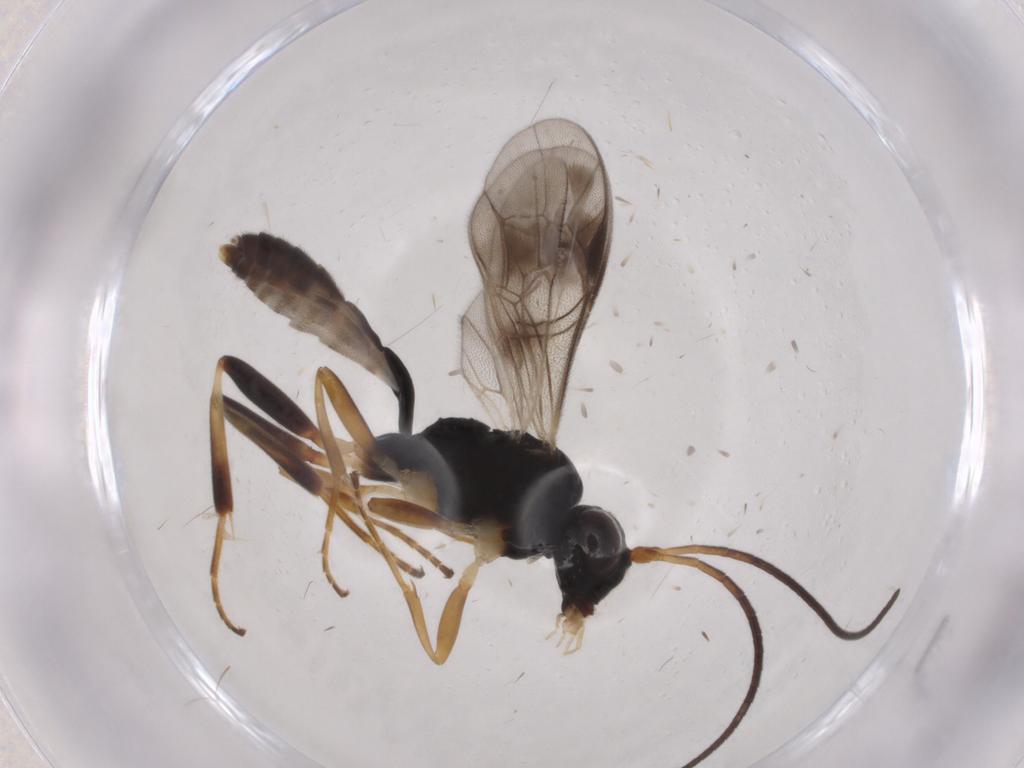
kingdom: Animalia
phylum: Arthropoda
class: Insecta
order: Hymenoptera
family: Ichneumonidae
